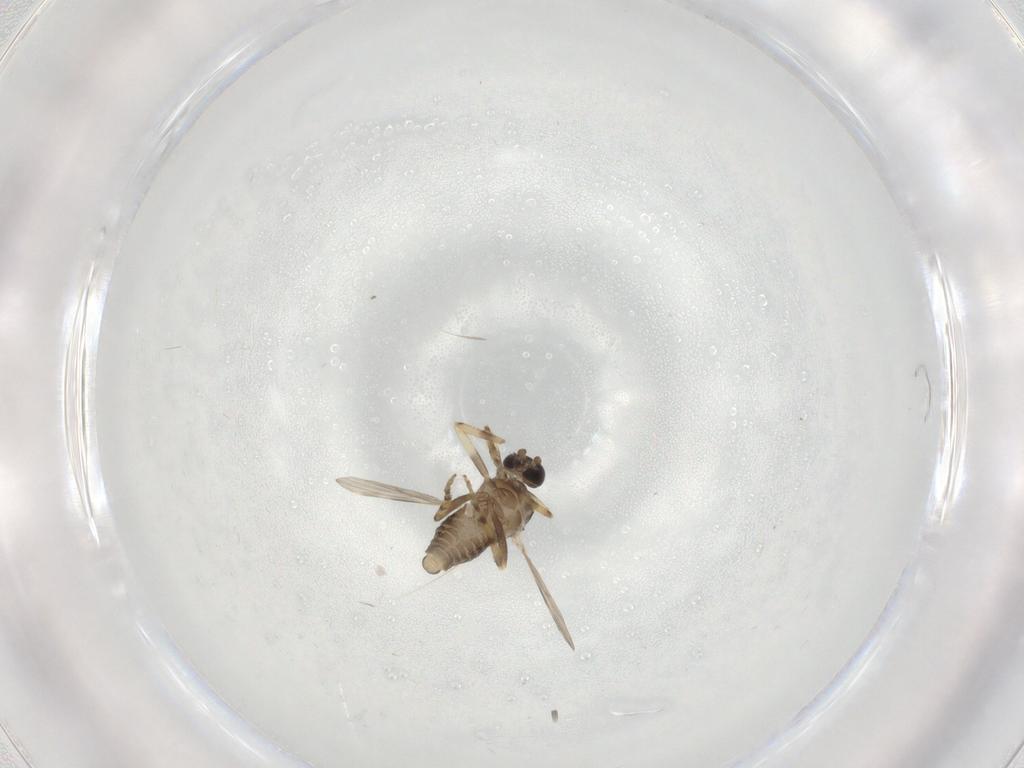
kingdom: Animalia
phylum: Arthropoda
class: Insecta
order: Diptera
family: Ceratopogonidae
